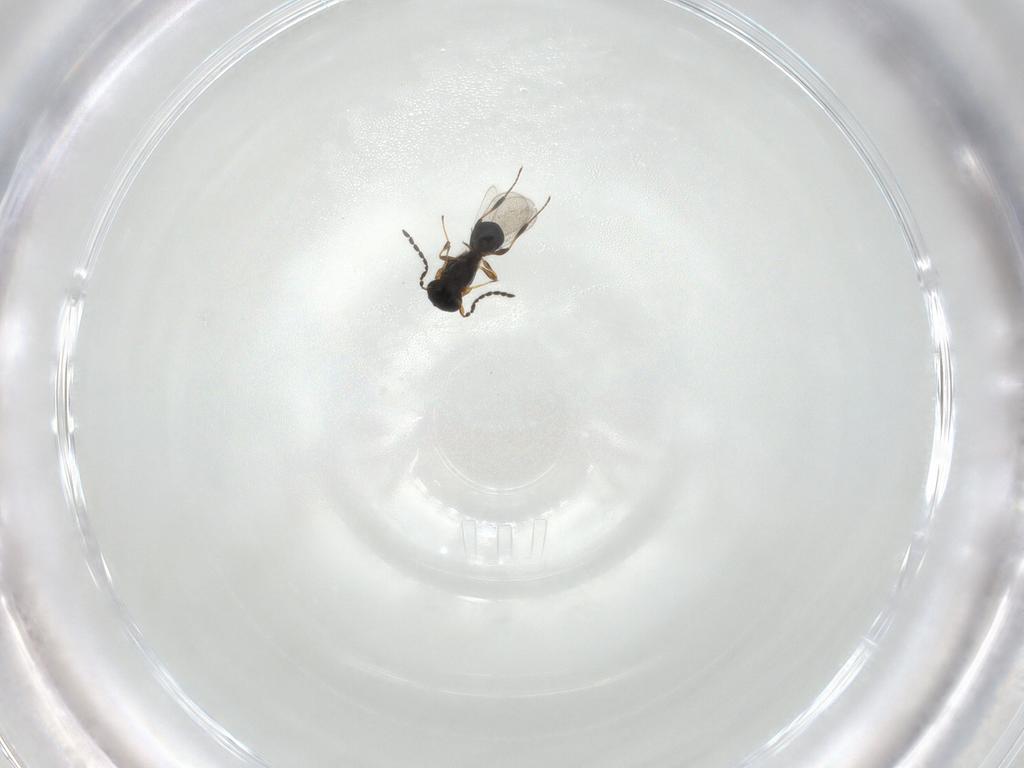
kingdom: Animalia
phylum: Arthropoda
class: Insecta
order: Hymenoptera
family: Platygastridae
